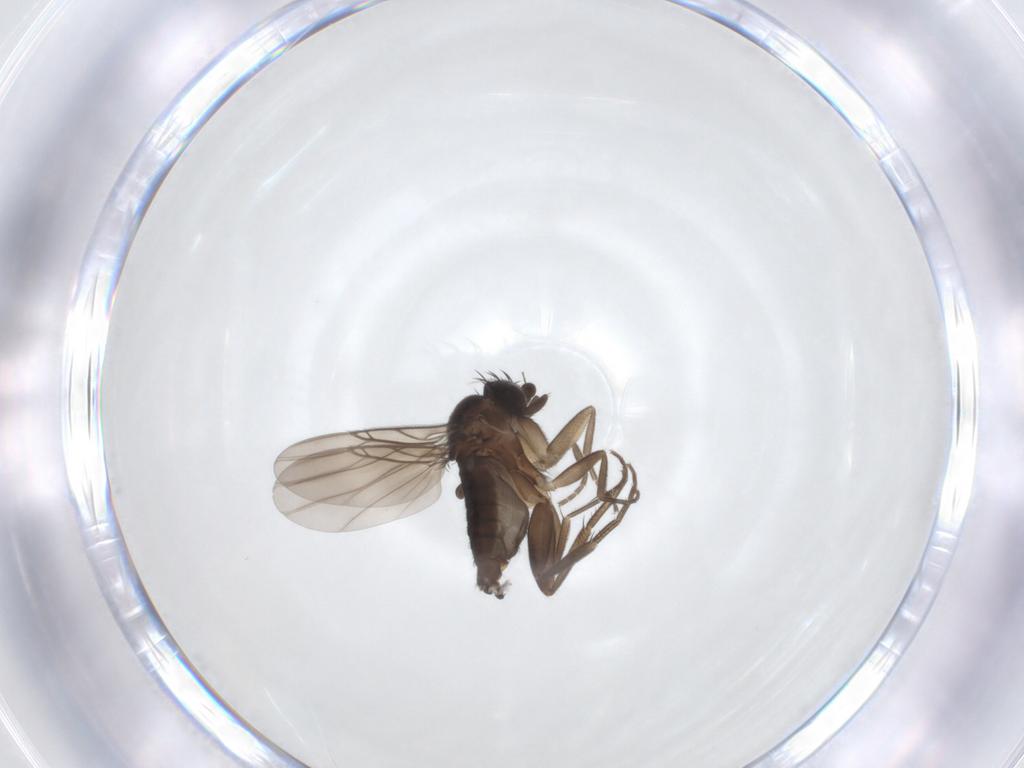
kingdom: Animalia
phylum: Arthropoda
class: Insecta
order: Diptera
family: Phoridae
